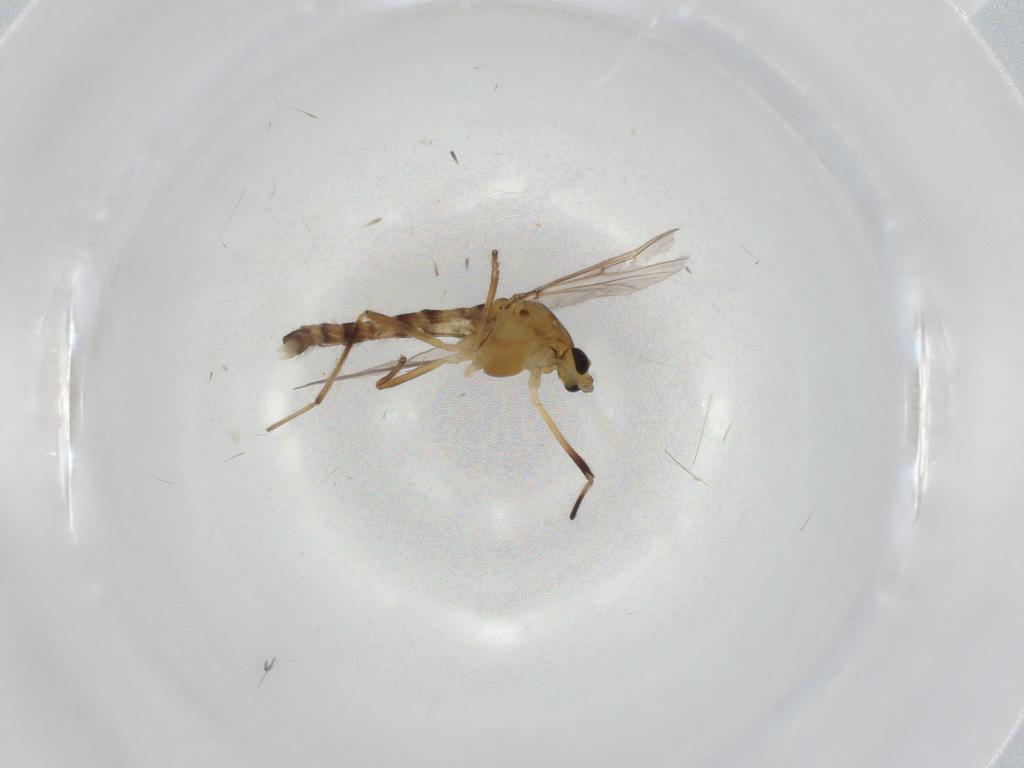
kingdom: Animalia
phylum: Arthropoda
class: Insecta
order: Diptera
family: Chironomidae
